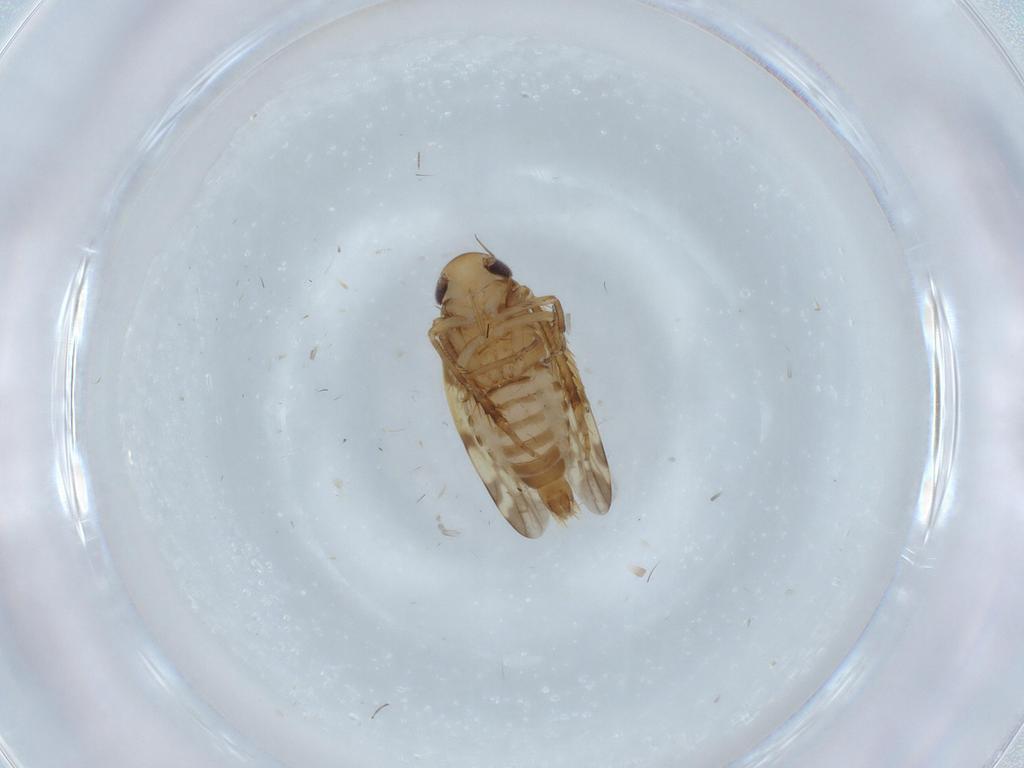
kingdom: Animalia
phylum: Arthropoda
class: Insecta
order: Hemiptera
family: Cicadellidae
